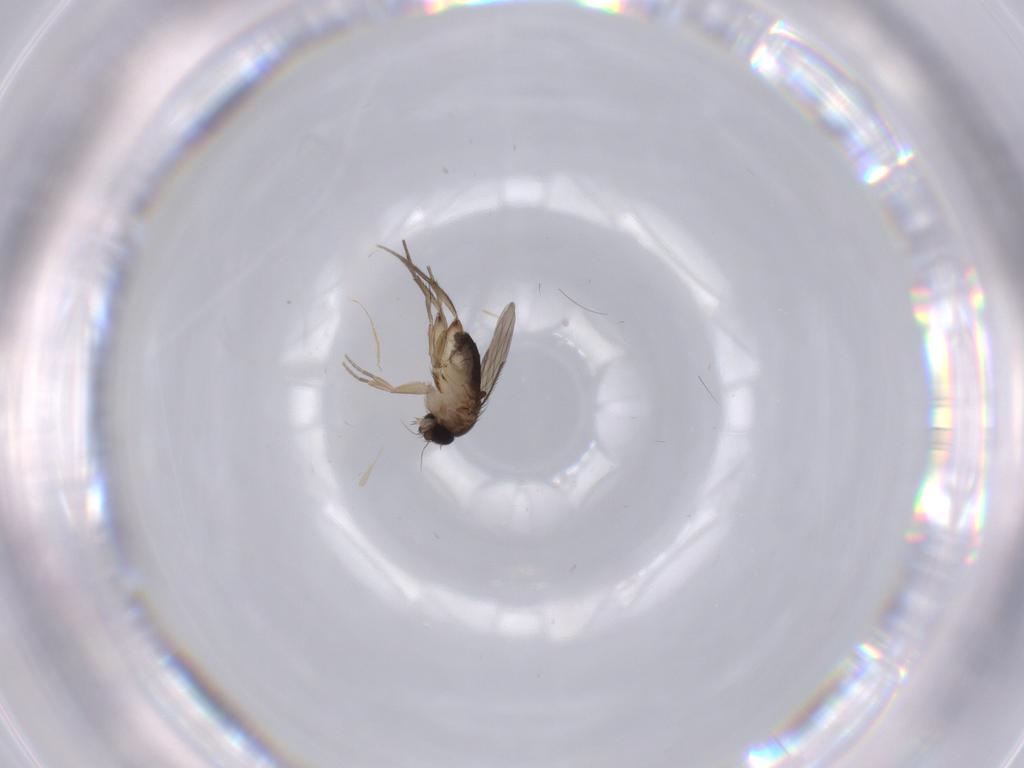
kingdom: Animalia
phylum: Arthropoda
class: Insecta
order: Diptera
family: Phoridae
